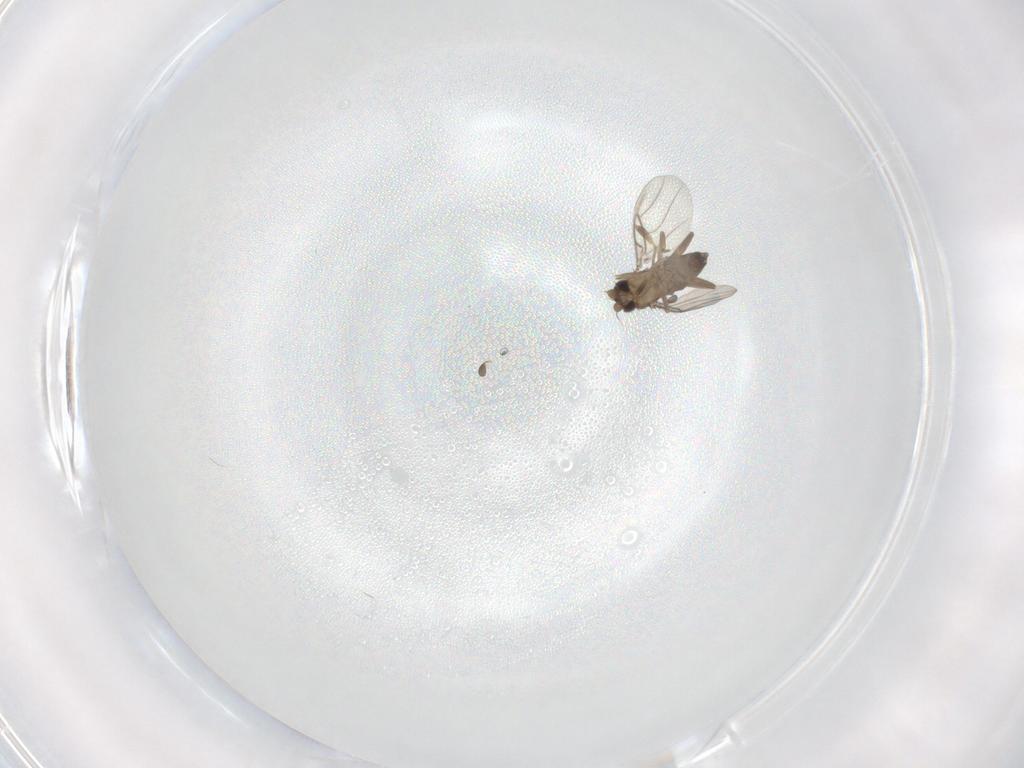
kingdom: Animalia
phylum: Arthropoda
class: Insecta
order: Diptera
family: Phoridae
